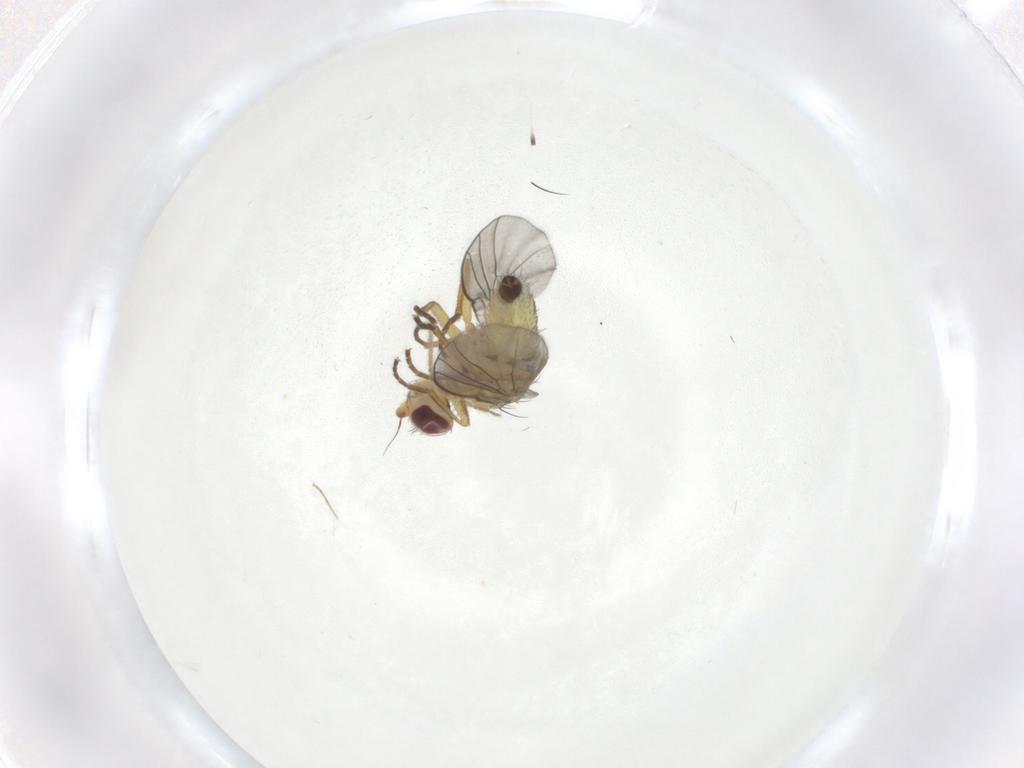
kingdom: Animalia
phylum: Arthropoda
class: Insecta
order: Diptera
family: Agromyzidae
